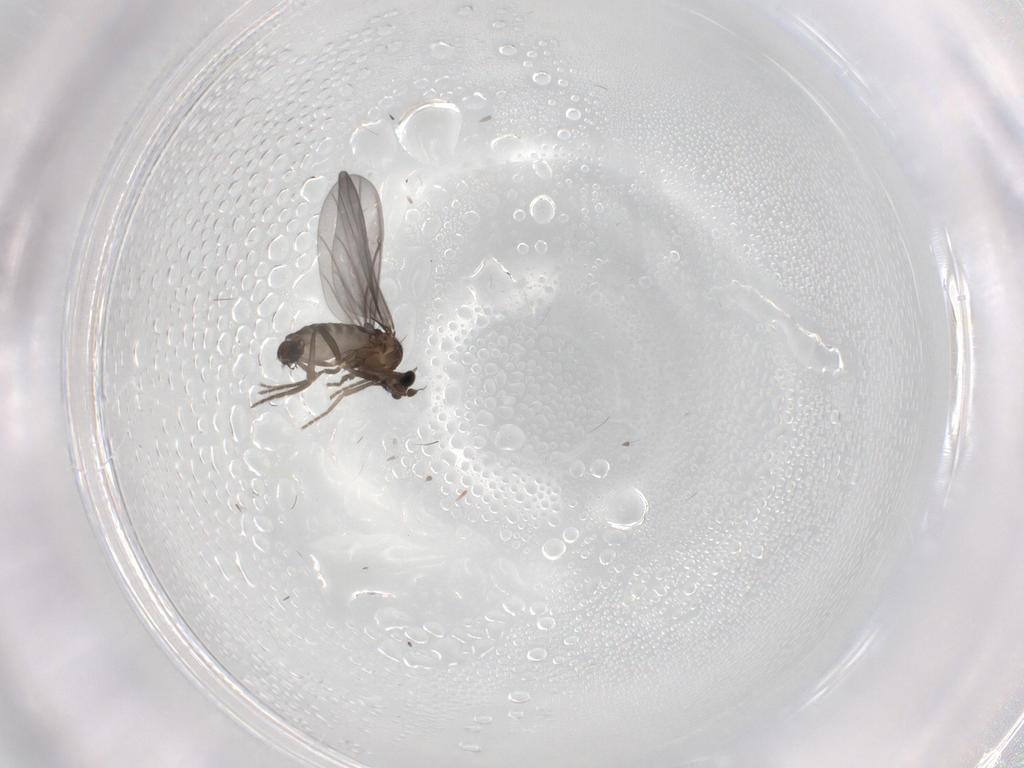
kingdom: Animalia
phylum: Arthropoda
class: Insecta
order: Diptera
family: Phoridae
